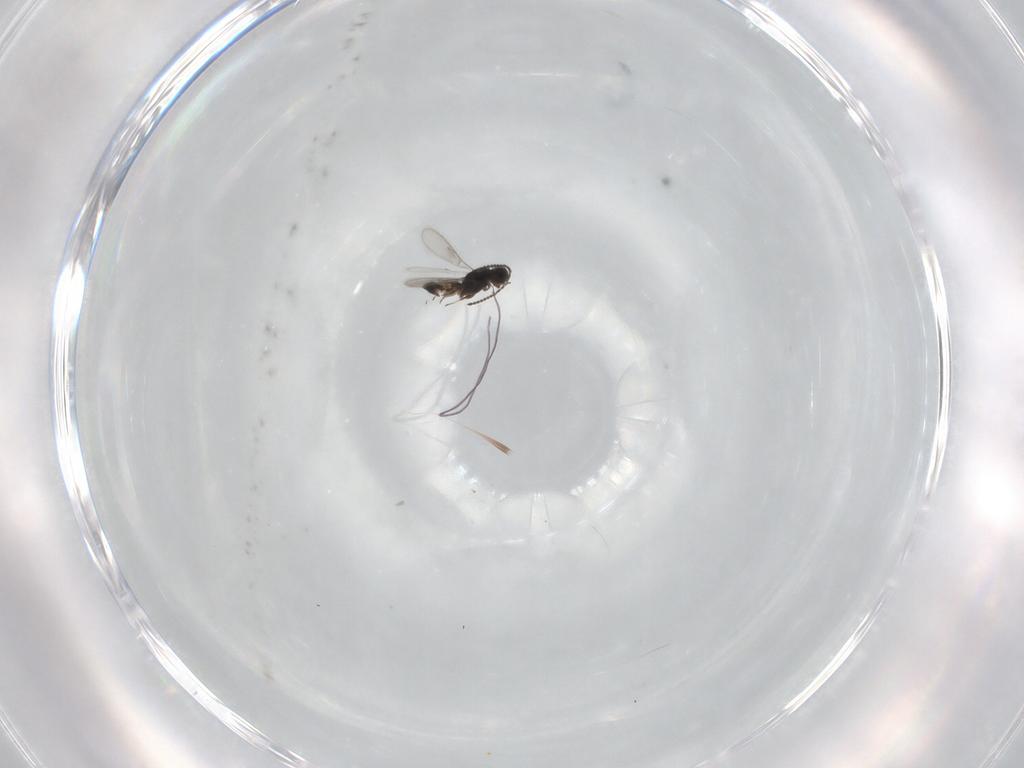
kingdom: Animalia
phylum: Arthropoda
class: Insecta
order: Hymenoptera
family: Scelionidae
